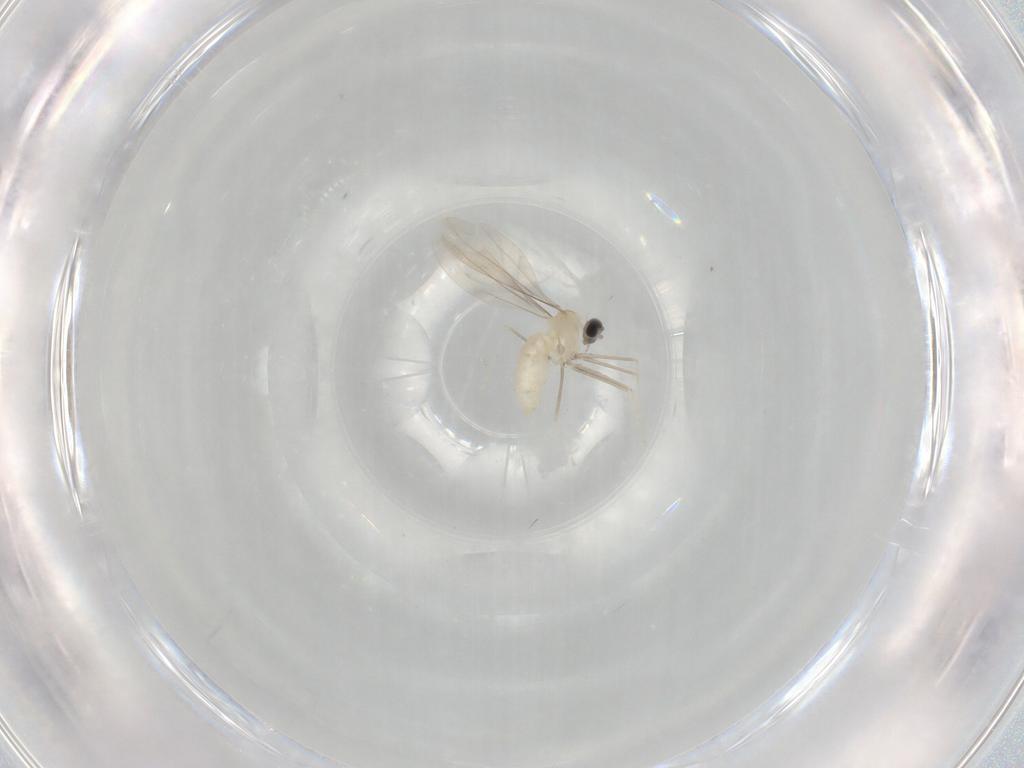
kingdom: Animalia
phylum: Arthropoda
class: Insecta
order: Diptera
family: Cecidomyiidae
